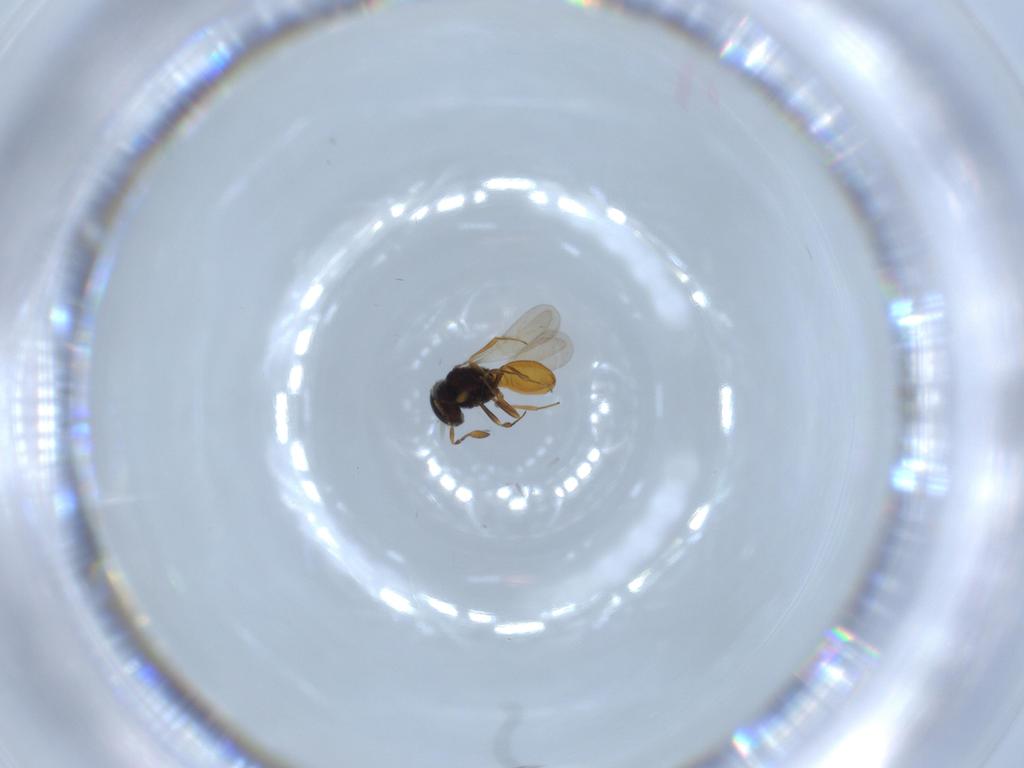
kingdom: Animalia
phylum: Arthropoda
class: Insecta
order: Hymenoptera
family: Scelionidae
